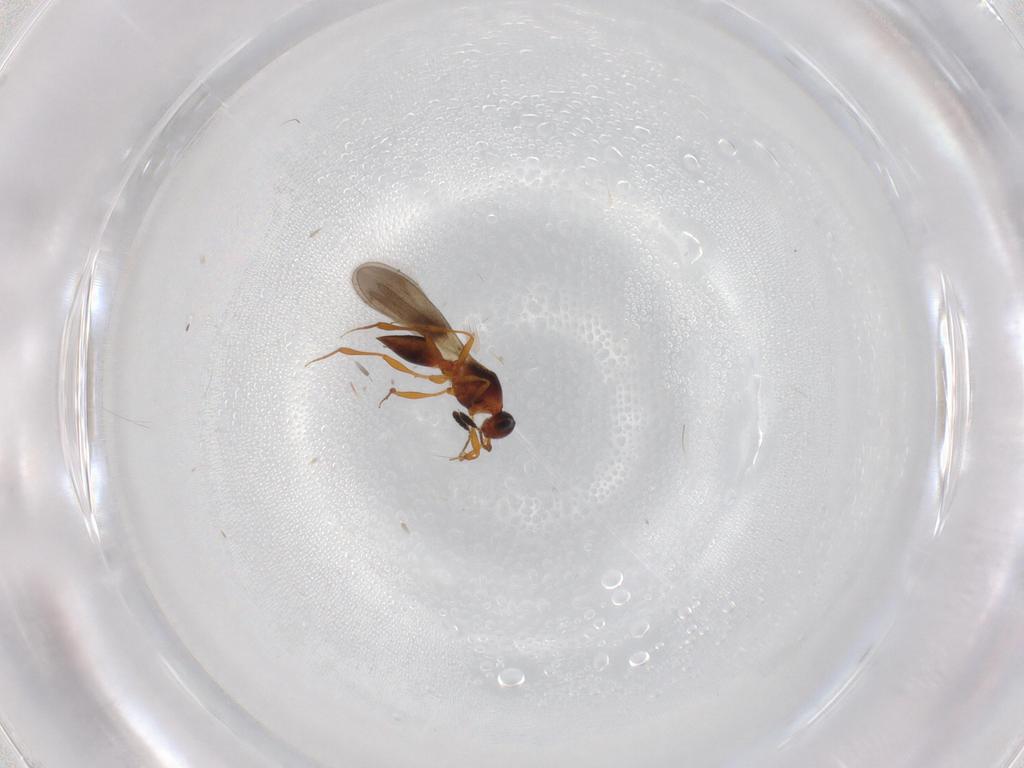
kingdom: Animalia
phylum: Arthropoda
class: Insecta
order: Hymenoptera
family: Platygastridae
